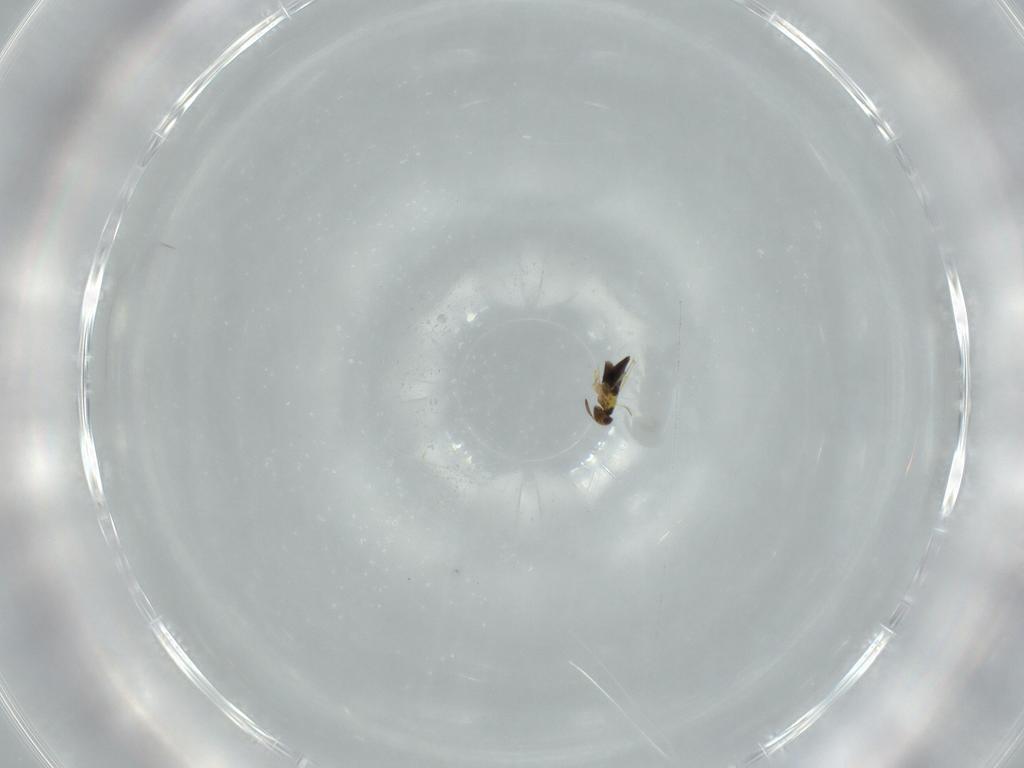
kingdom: Animalia
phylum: Arthropoda
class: Insecta
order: Hymenoptera
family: Signiphoridae
